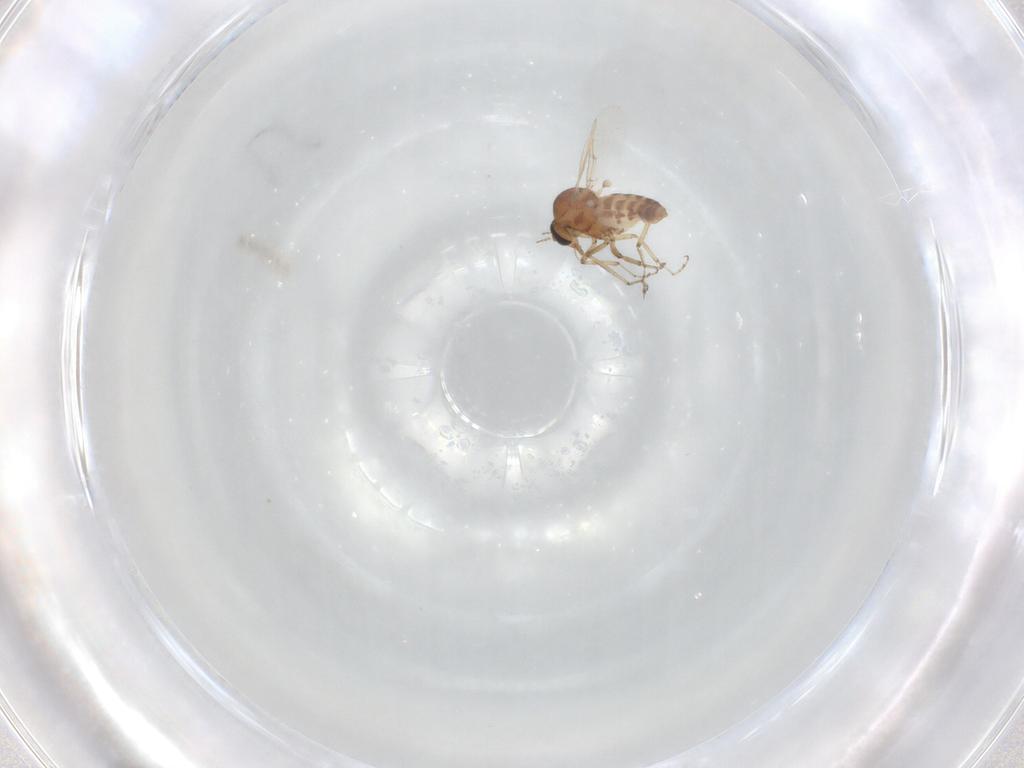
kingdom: Animalia
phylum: Arthropoda
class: Insecta
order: Diptera
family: Ceratopogonidae
